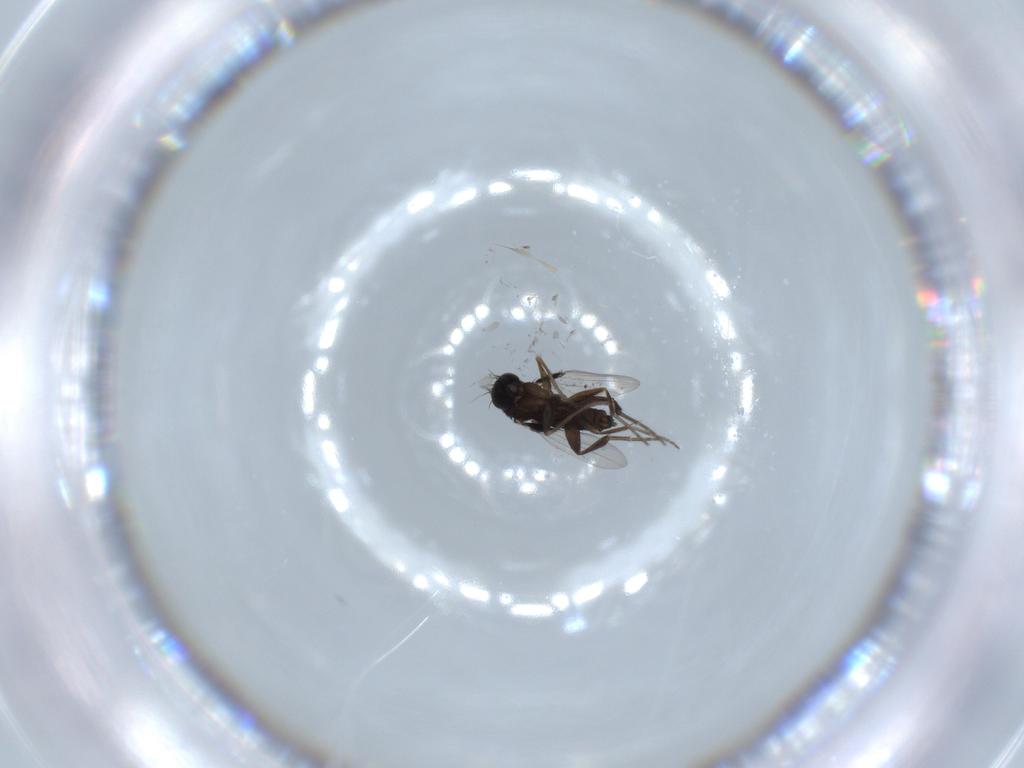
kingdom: Animalia
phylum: Arthropoda
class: Insecta
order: Diptera
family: Phoridae
